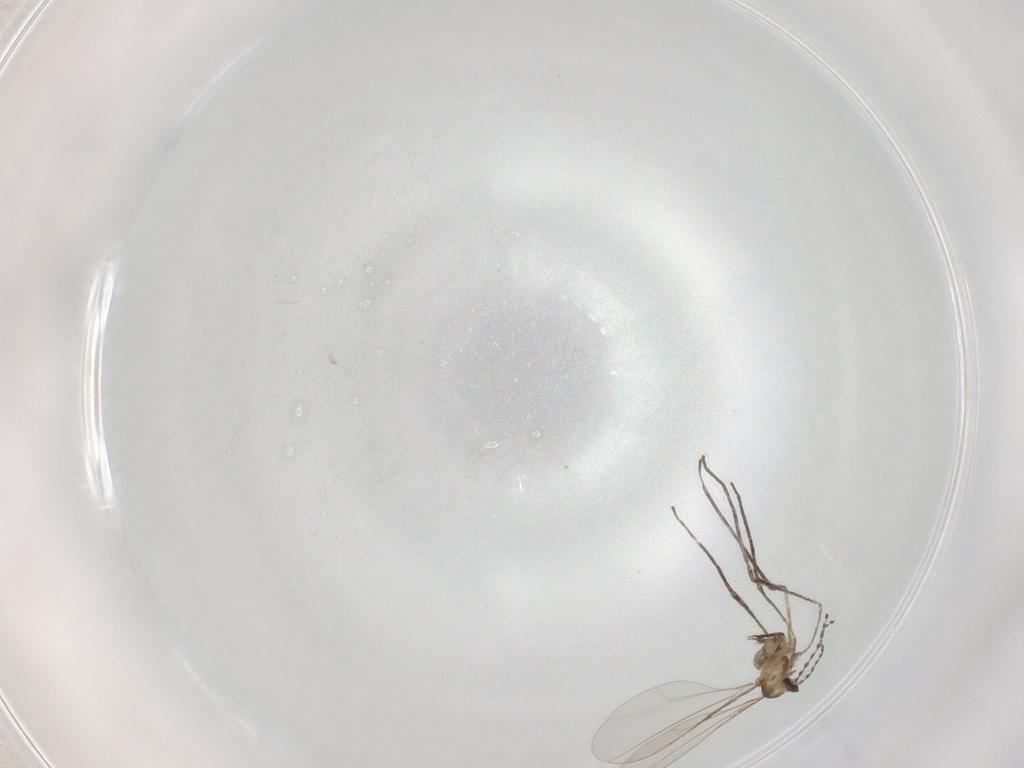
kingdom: Animalia
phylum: Arthropoda
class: Insecta
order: Diptera
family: Cecidomyiidae
